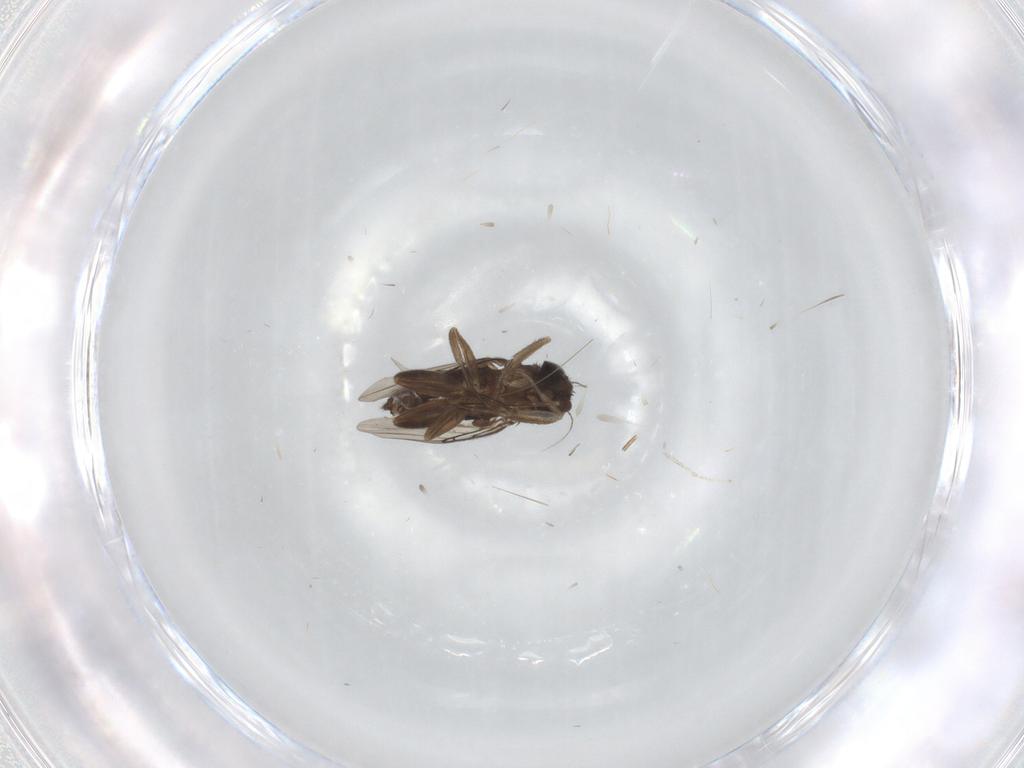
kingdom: Animalia
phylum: Arthropoda
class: Insecta
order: Diptera
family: Phoridae
